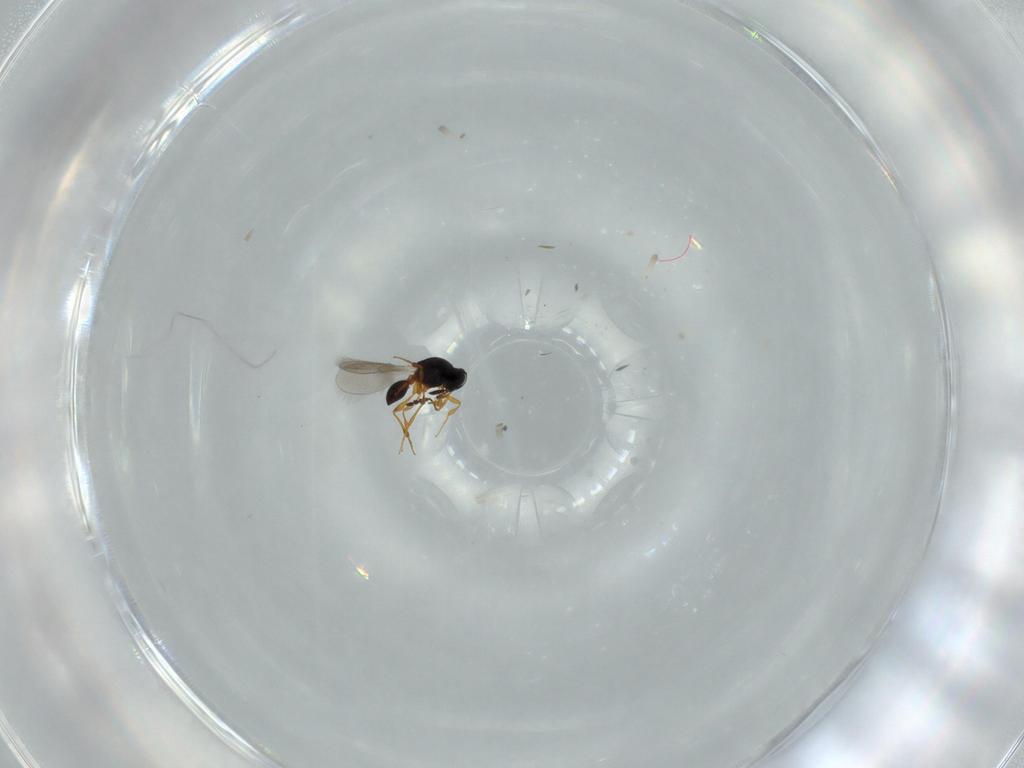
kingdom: Animalia
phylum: Arthropoda
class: Insecta
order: Hymenoptera
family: Platygastridae
